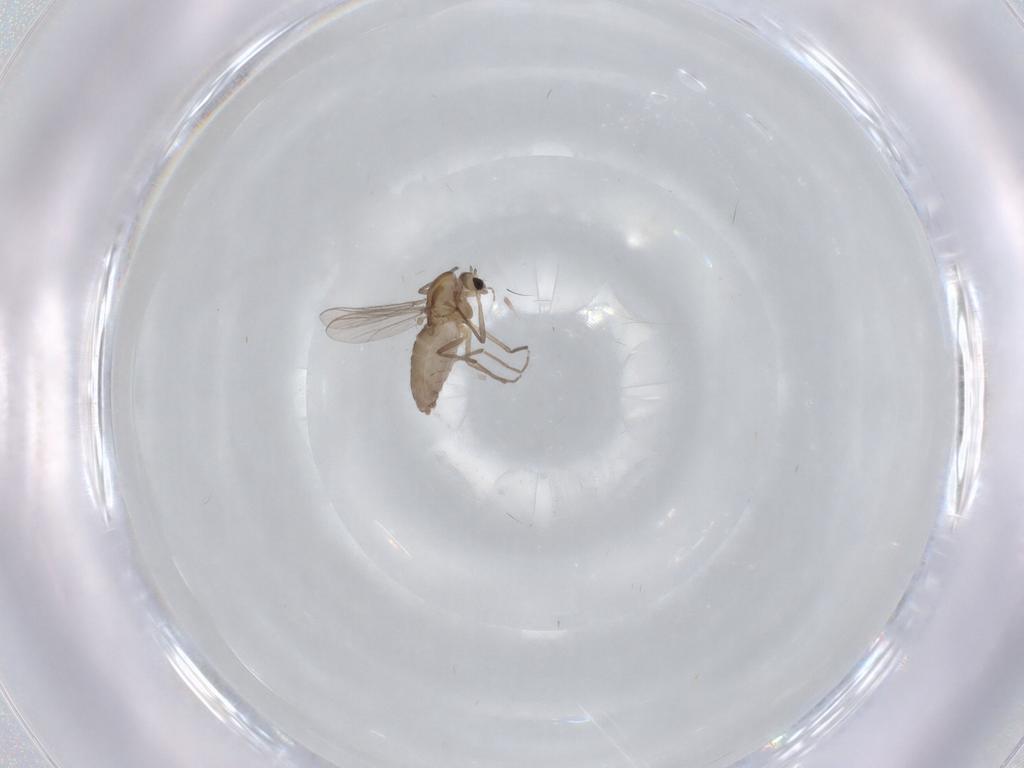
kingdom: Animalia
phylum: Arthropoda
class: Insecta
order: Diptera
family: Chironomidae
